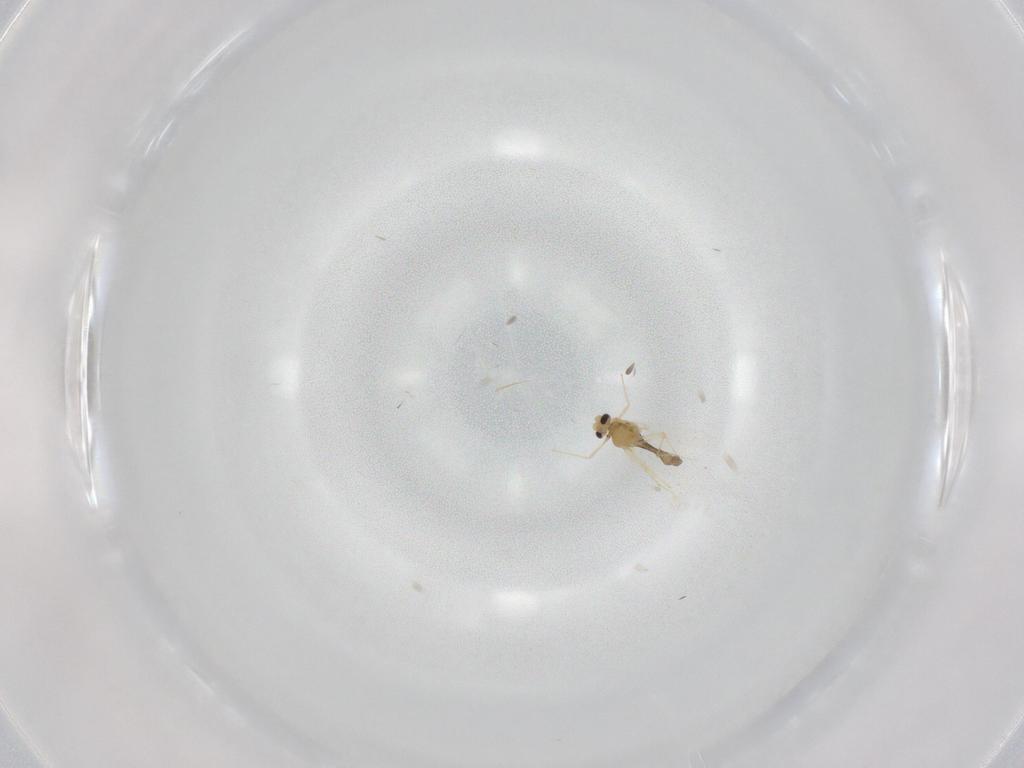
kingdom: Animalia
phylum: Arthropoda
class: Insecta
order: Diptera
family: Chironomidae
